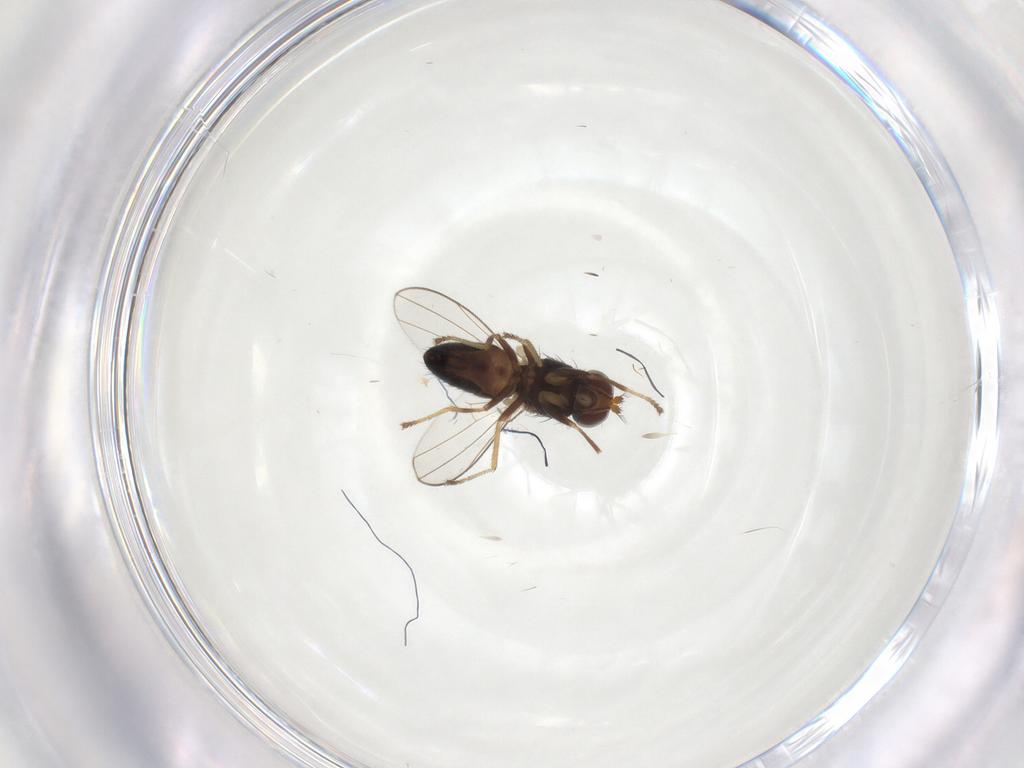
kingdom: Animalia
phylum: Arthropoda
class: Insecta
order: Diptera
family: Ephydridae
